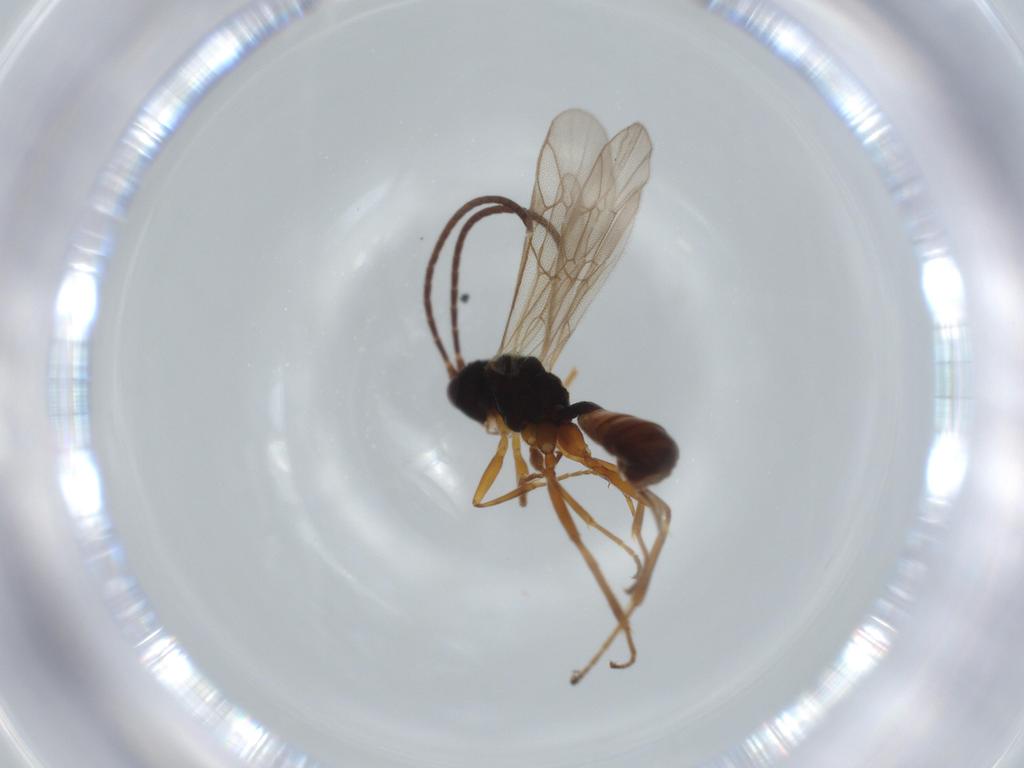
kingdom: Animalia
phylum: Arthropoda
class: Insecta
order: Hymenoptera
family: Ichneumonidae
